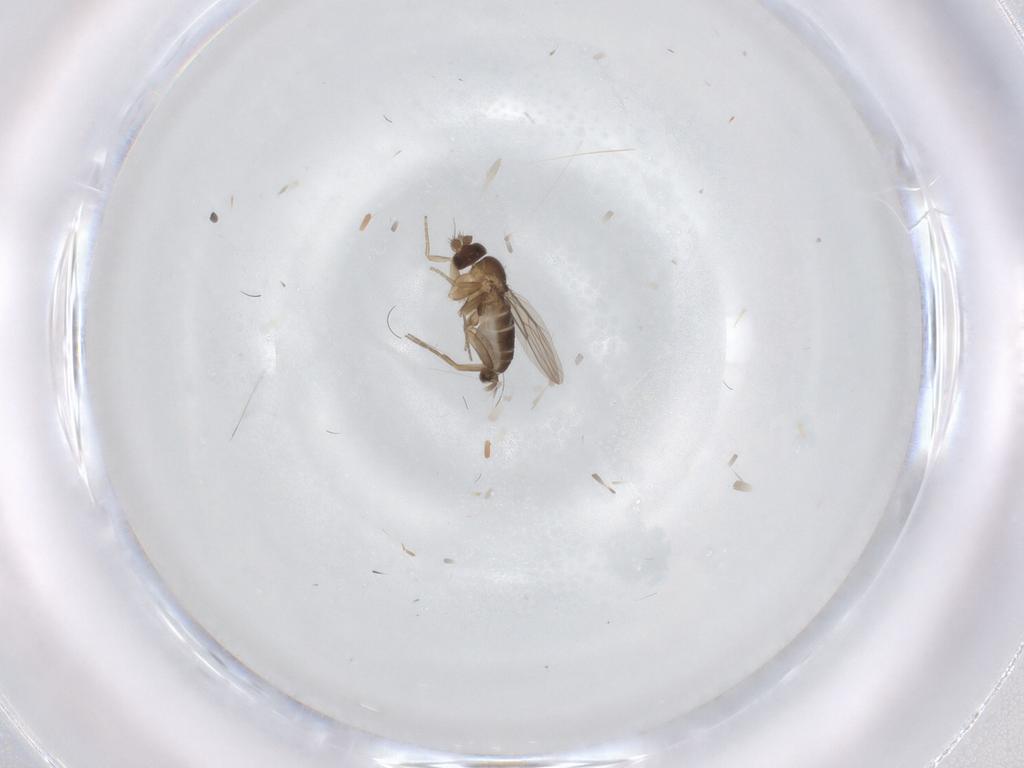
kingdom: Animalia
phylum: Arthropoda
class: Insecta
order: Diptera
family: Phoridae
